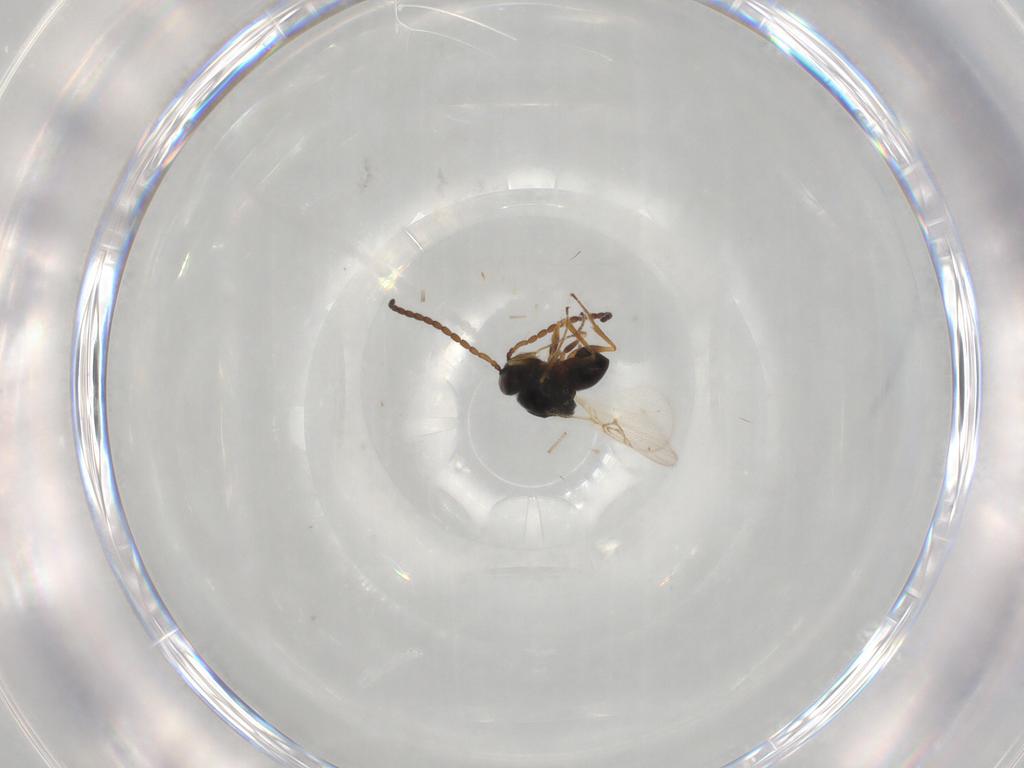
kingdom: Animalia
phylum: Arthropoda
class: Insecta
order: Hymenoptera
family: Figitidae
